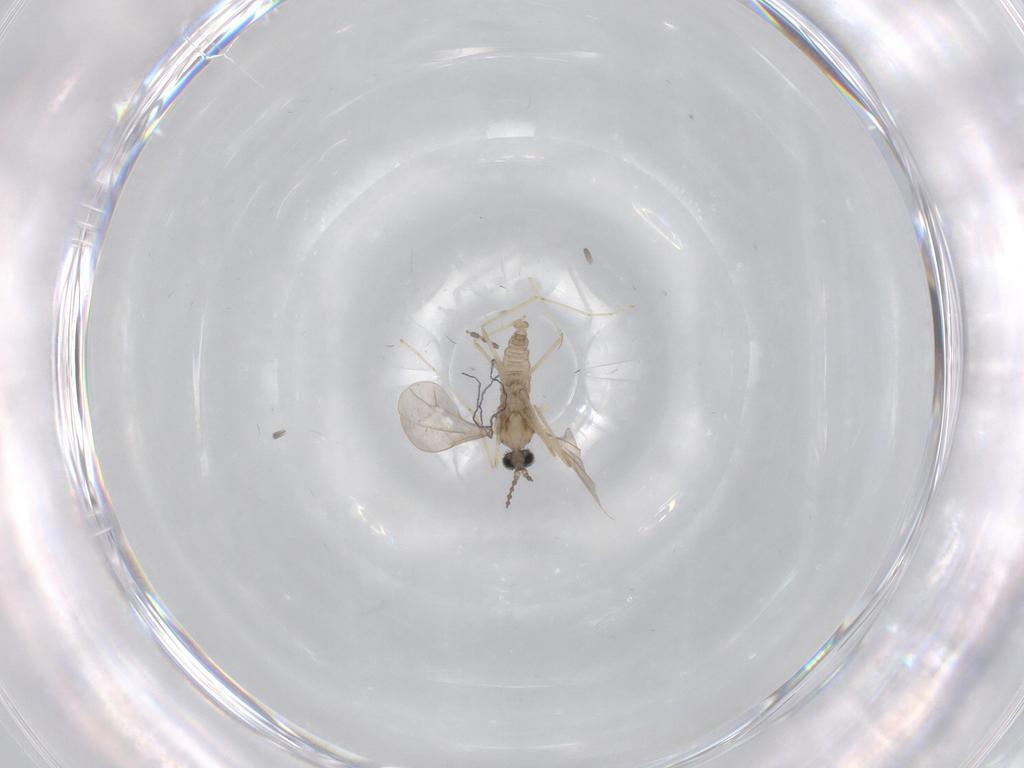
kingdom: Animalia
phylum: Arthropoda
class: Insecta
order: Diptera
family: Cecidomyiidae
